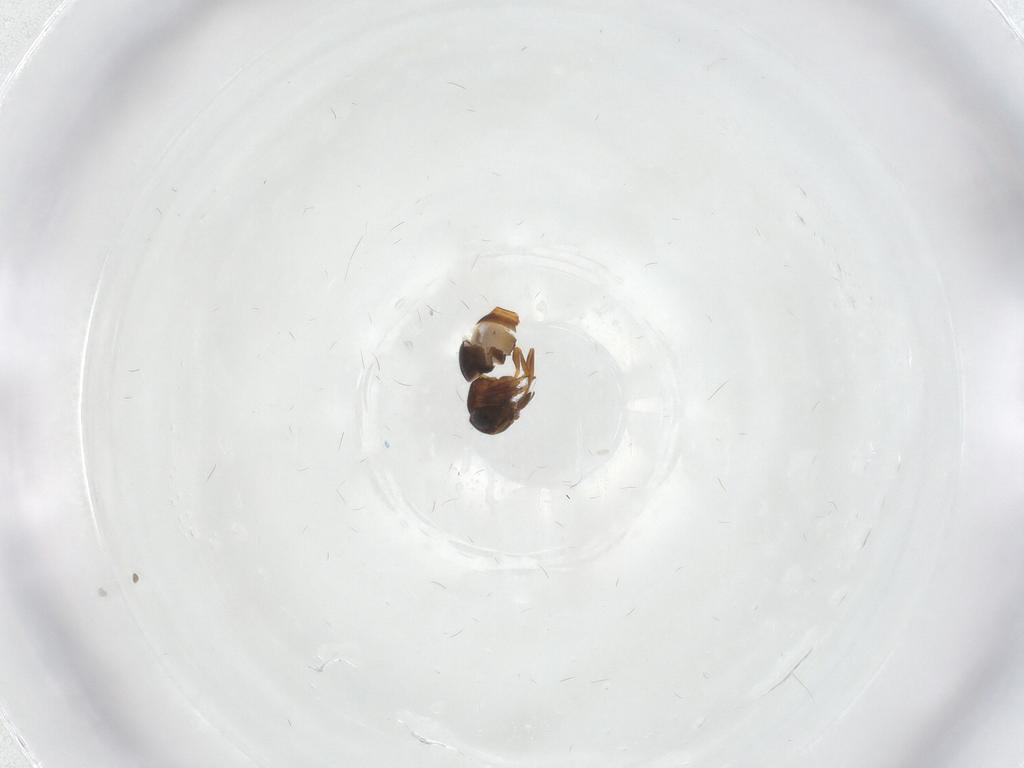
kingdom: Animalia
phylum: Arthropoda
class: Insecta
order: Hymenoptera
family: Scelionidae
